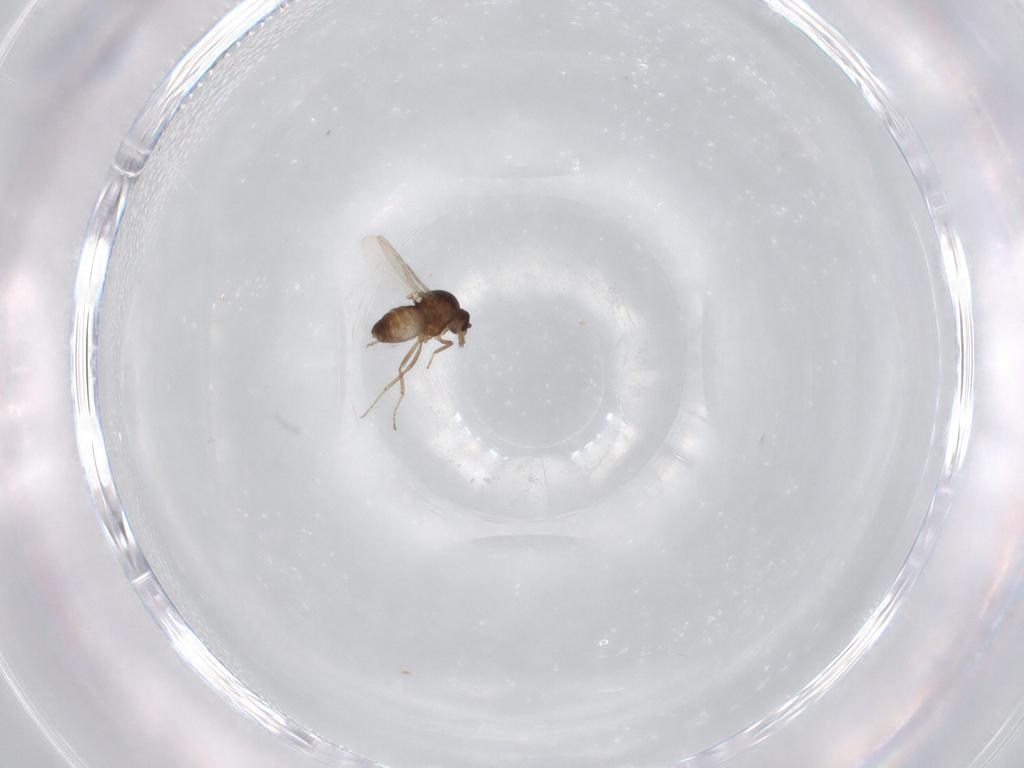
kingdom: Animalia
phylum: Arthropoda
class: Insecta
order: Diptera
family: Ceratopogonidae
